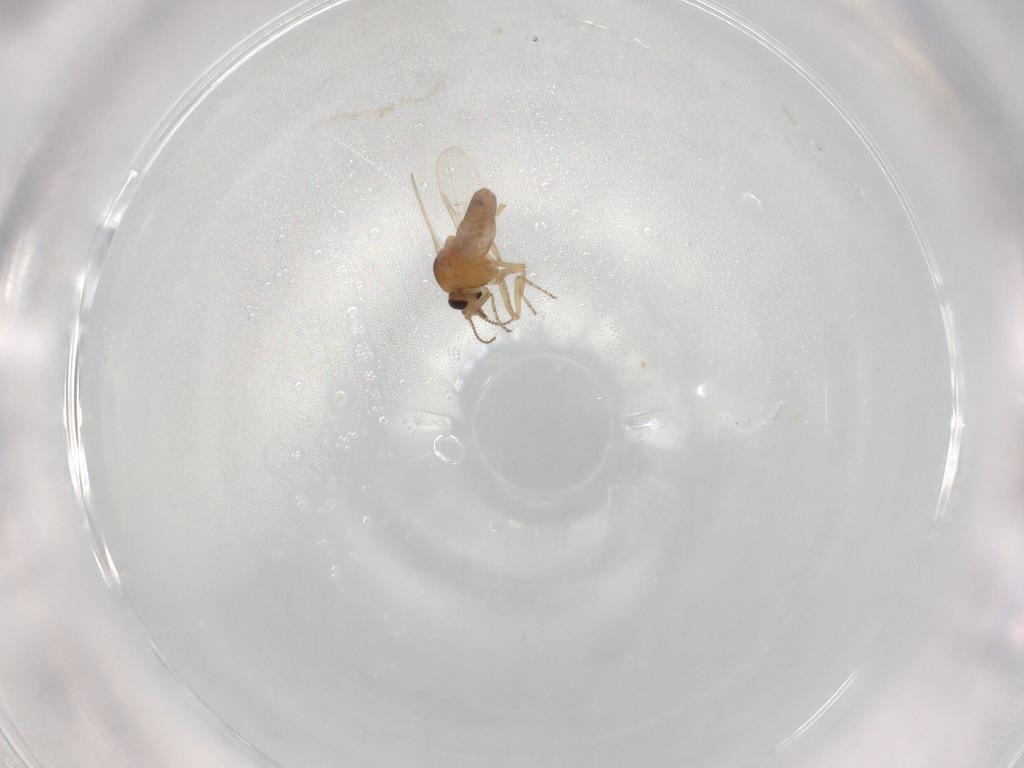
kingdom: Animalia
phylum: Arthropoda
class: Insecta
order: Diptera
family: Ceratopogonidae
